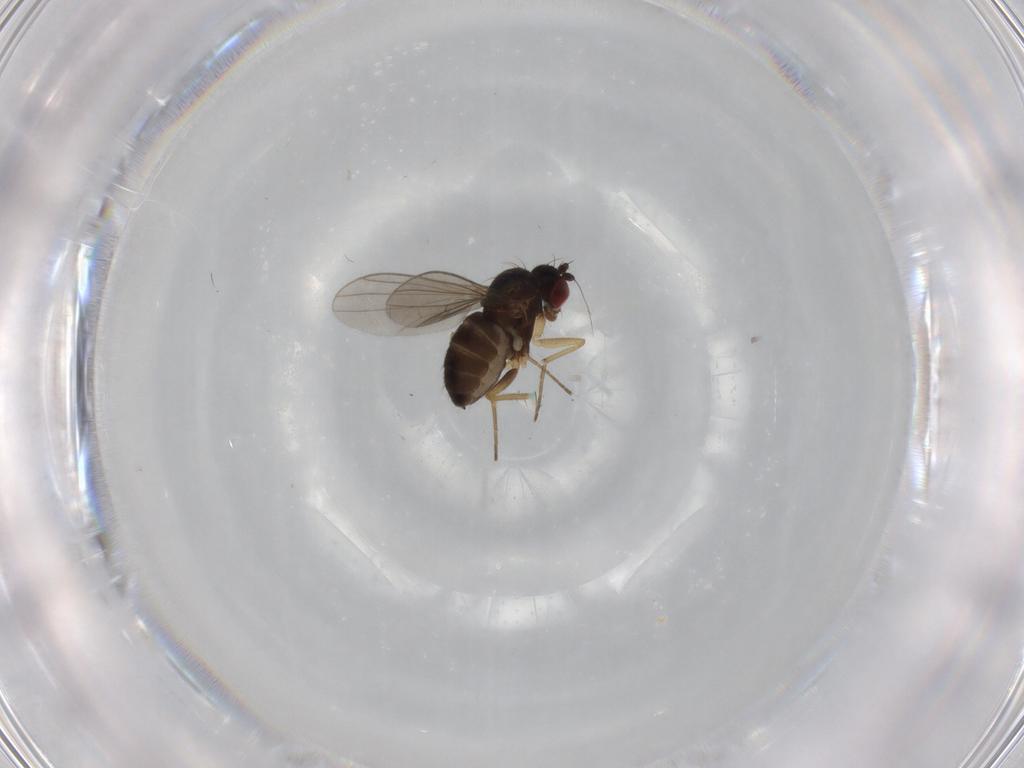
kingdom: Animalia
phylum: Arthropoda
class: Insecta
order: Diptera
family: Dolichopodidae
